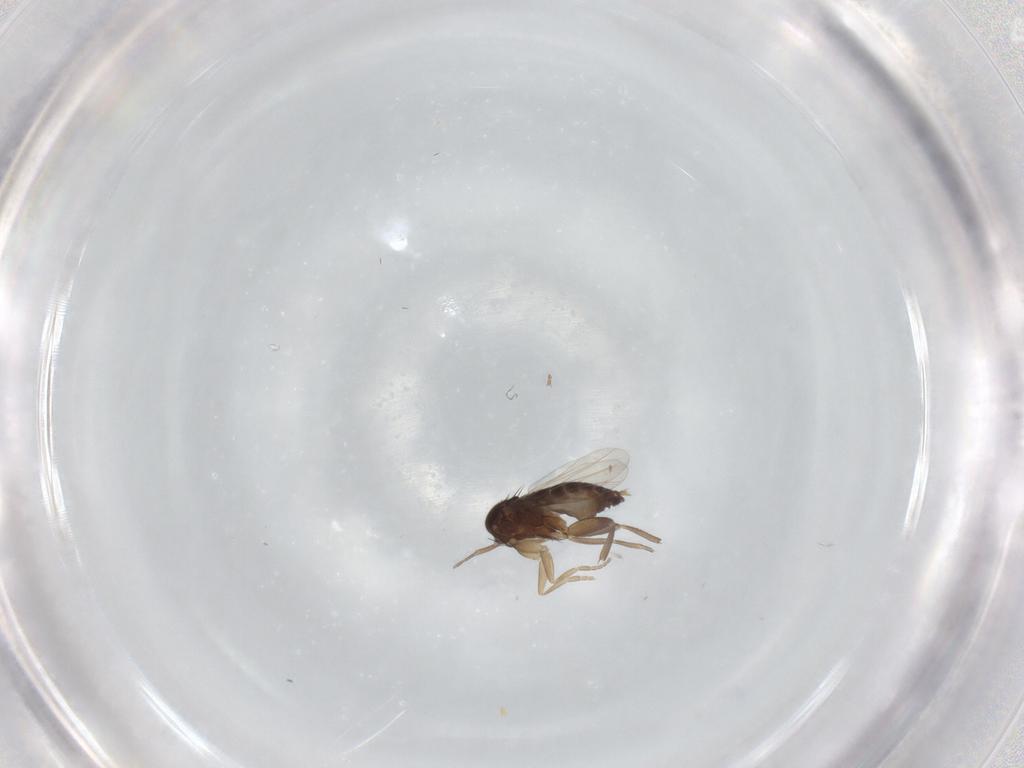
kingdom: Animalia
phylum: Arthropoda
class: Insecta
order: Diptera
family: Phoridae
